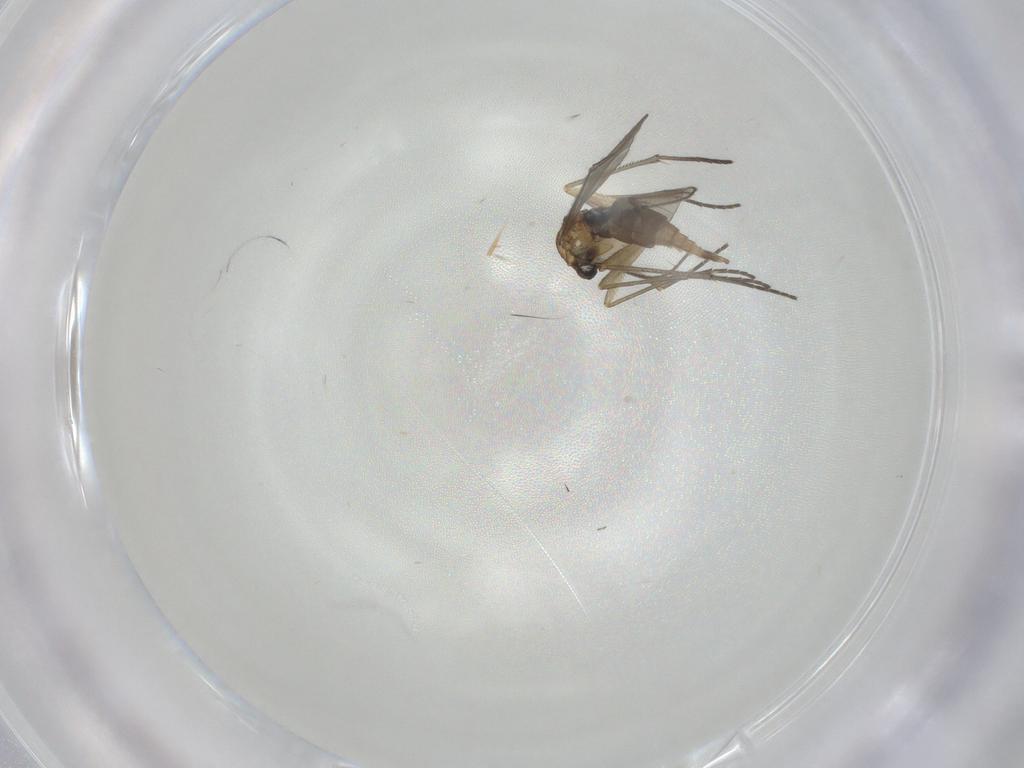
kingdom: Animalia
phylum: Arthropoda
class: Insecta
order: Diptera
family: Sciaridae
